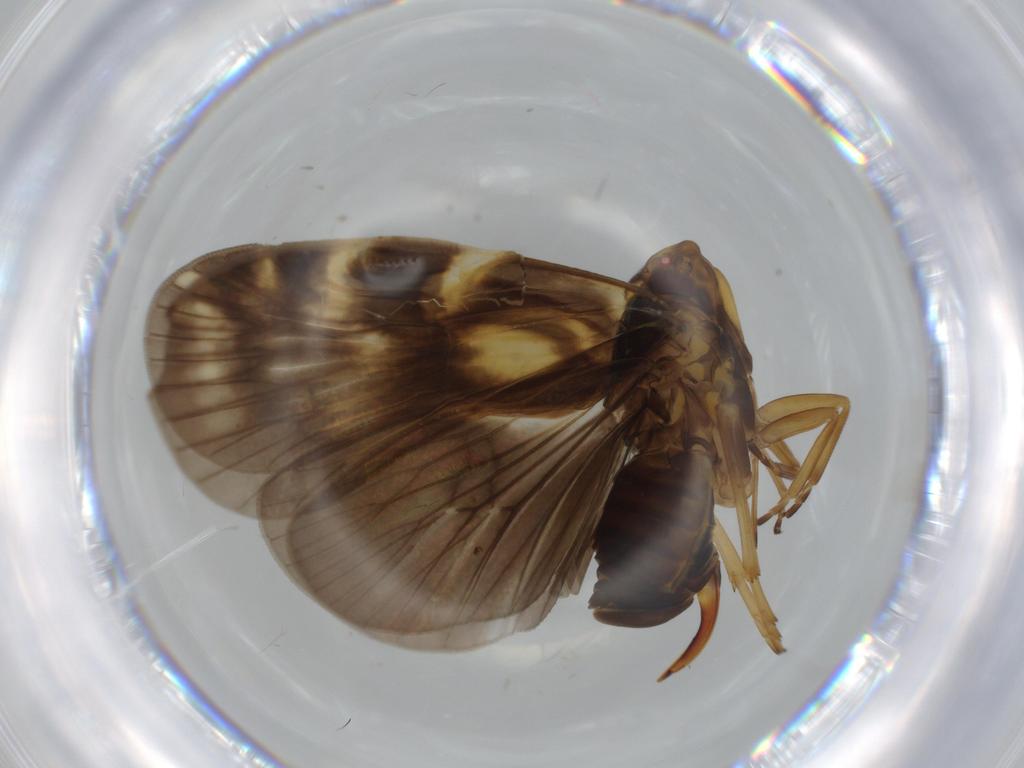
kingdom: Animalia
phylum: Arthropoda
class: Insecta
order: Hemiptera
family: Cixiidae
